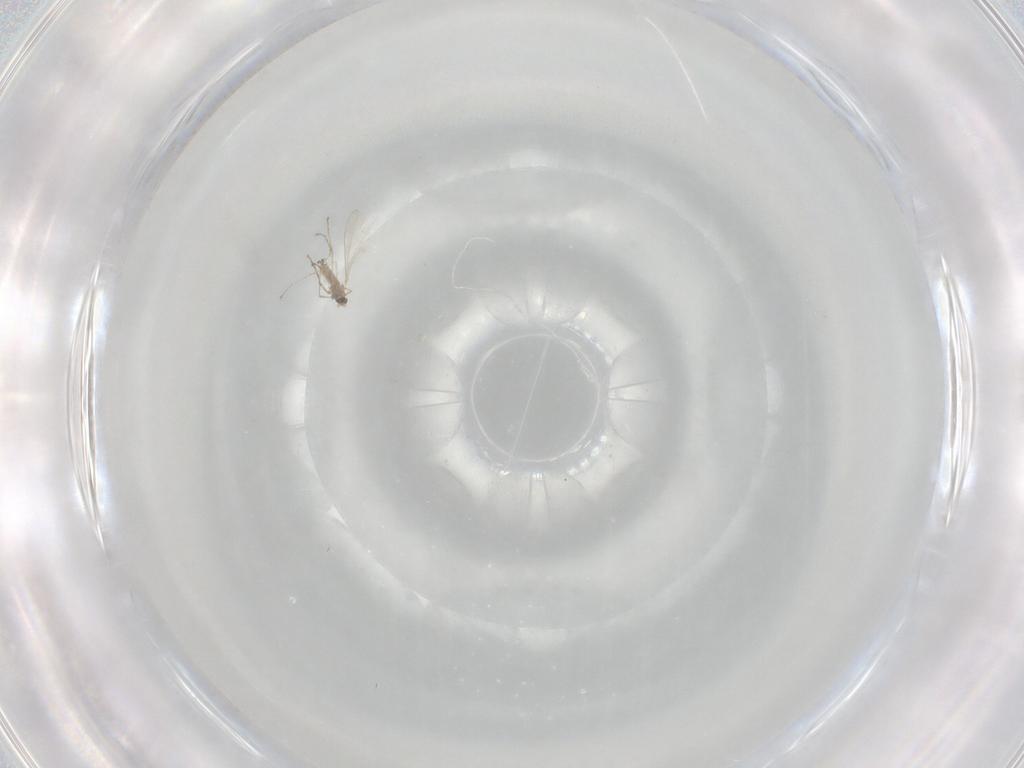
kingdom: Animalia
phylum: Arthropoda
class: Insecta
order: Diptera
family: Cecidomyiidae
